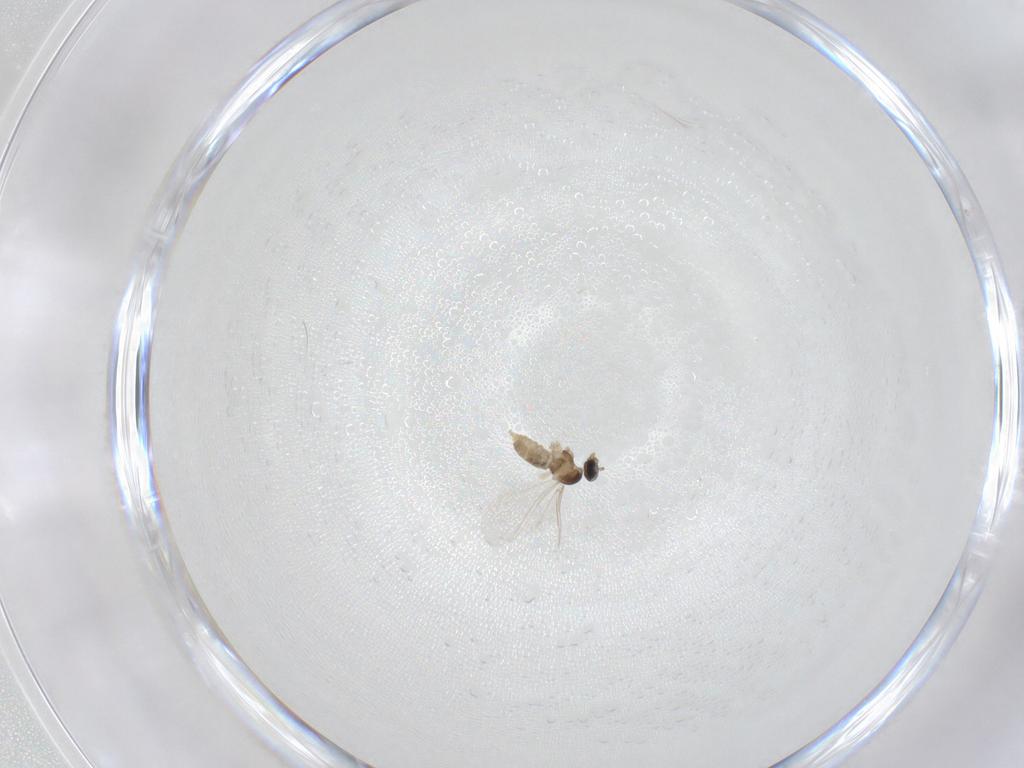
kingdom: Animalia
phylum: Arthropoda
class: Insecta
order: Diptera
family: Cecidomyiidae
